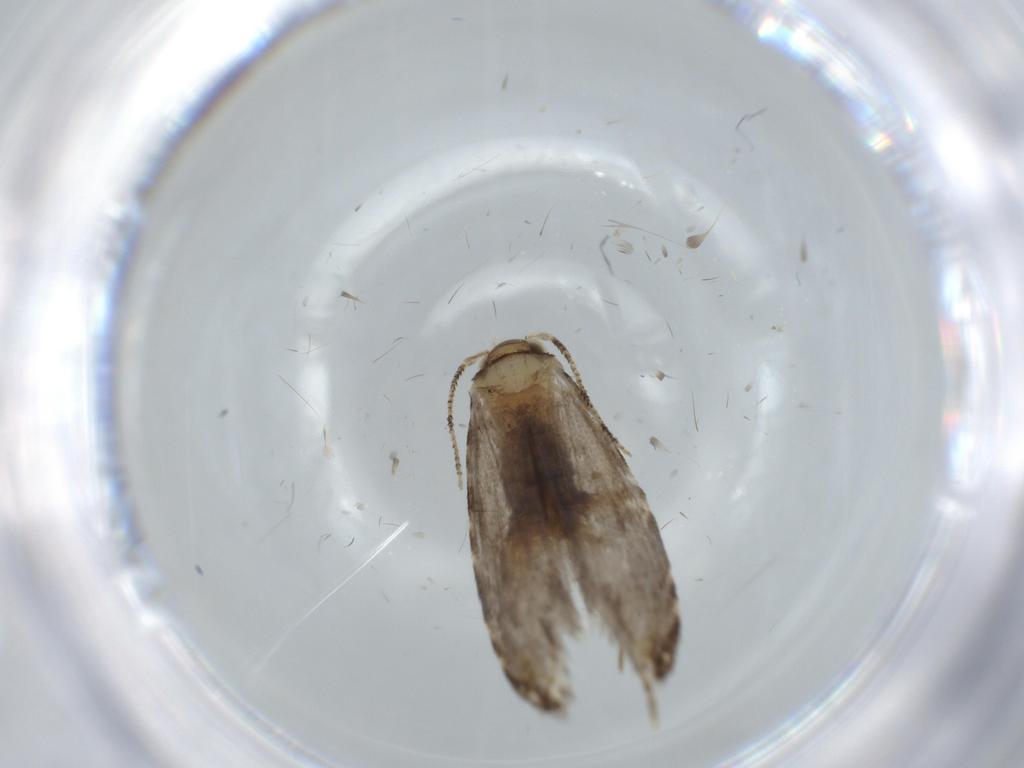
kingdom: Animalia
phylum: Arthropoda
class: Insecta
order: Lepidoptera
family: Tineidae
